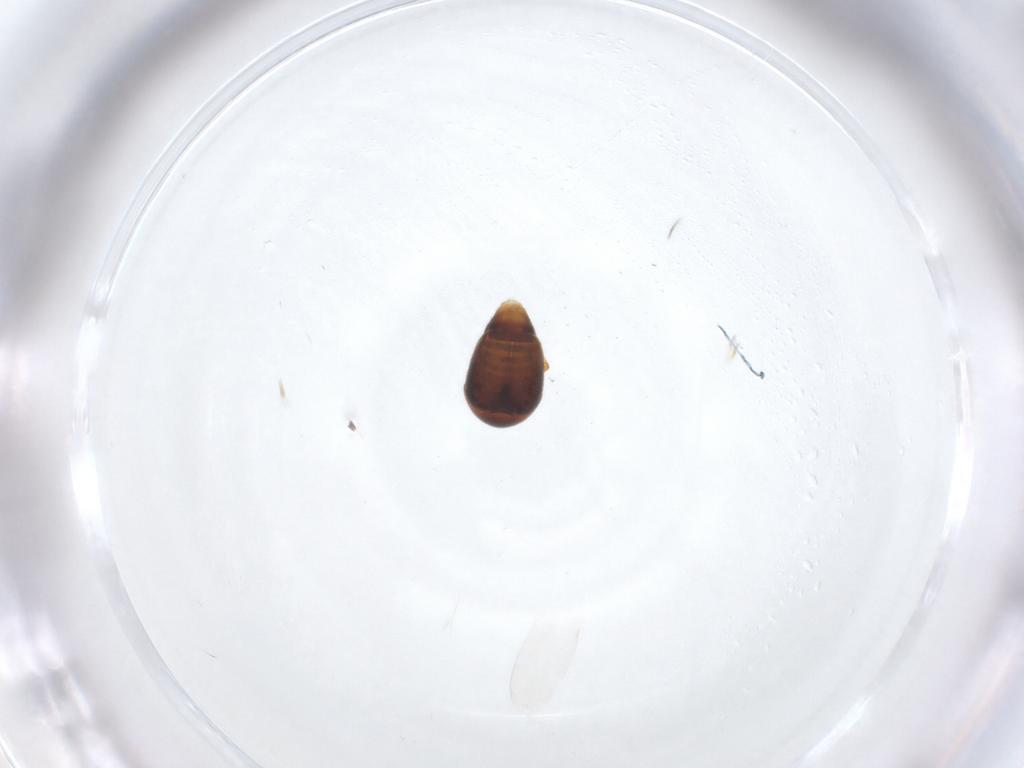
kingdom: Animalia
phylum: Arthropoda
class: Insecta
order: Coleoptera
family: Corylophidae
